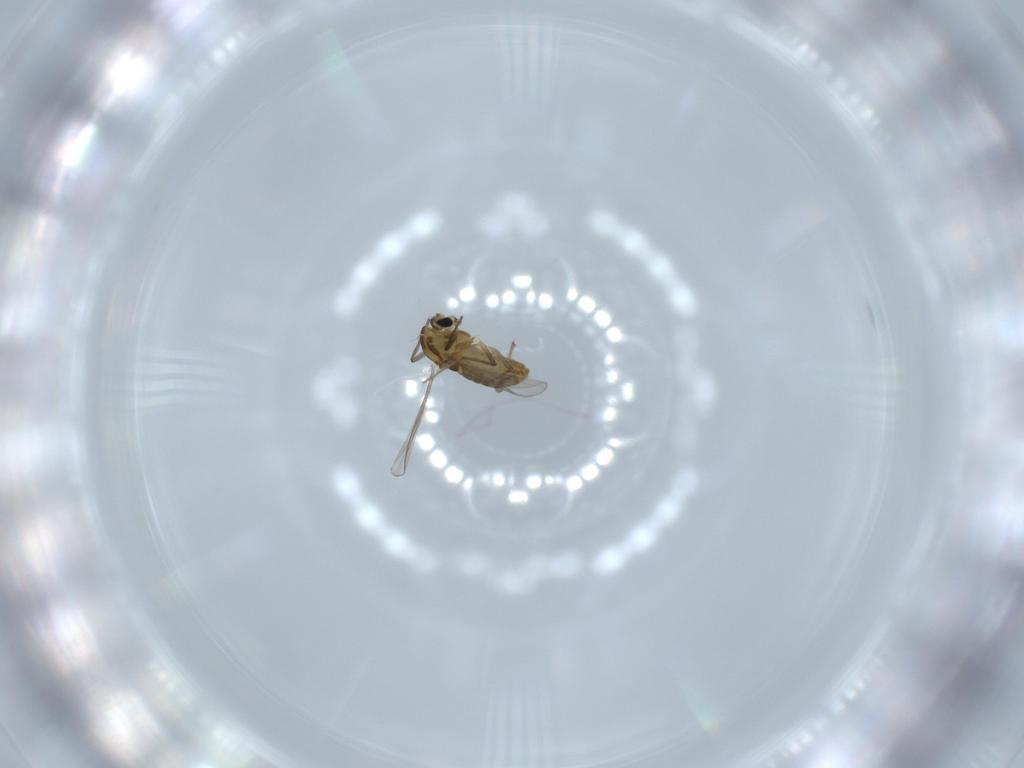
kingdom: Animalia
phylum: Arthropoda
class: Insecta
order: Diptera
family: Chironomidae
